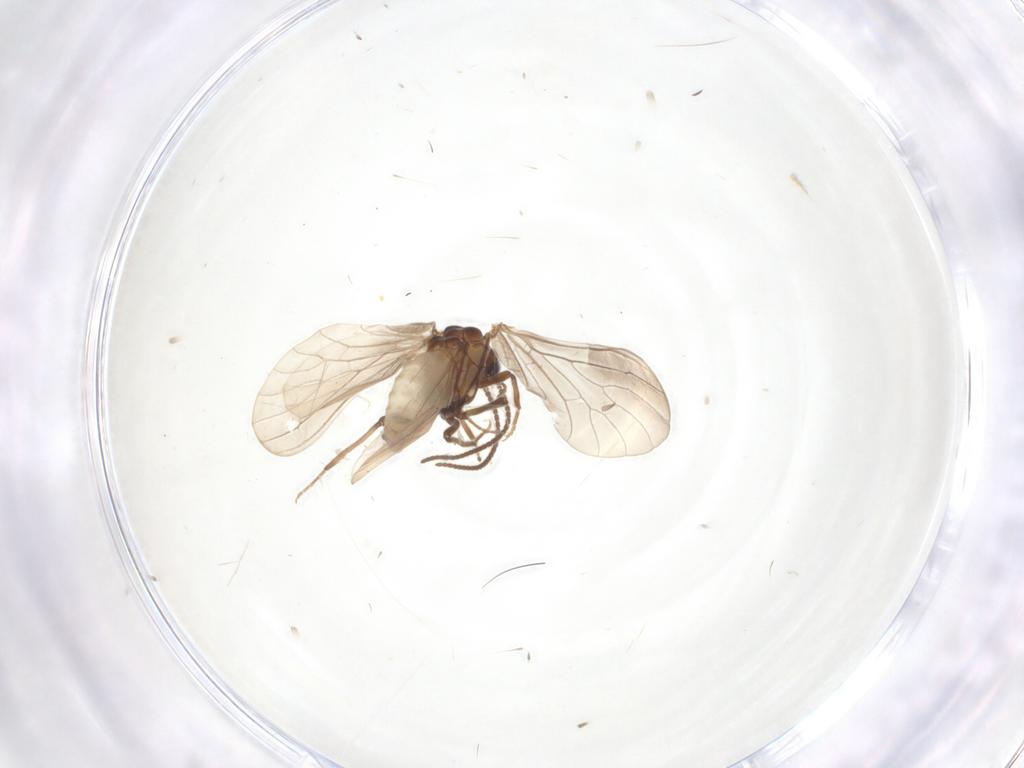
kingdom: Animalia
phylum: Arthropoda
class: Insecta
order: Neuroptera
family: Coniopterygidae
